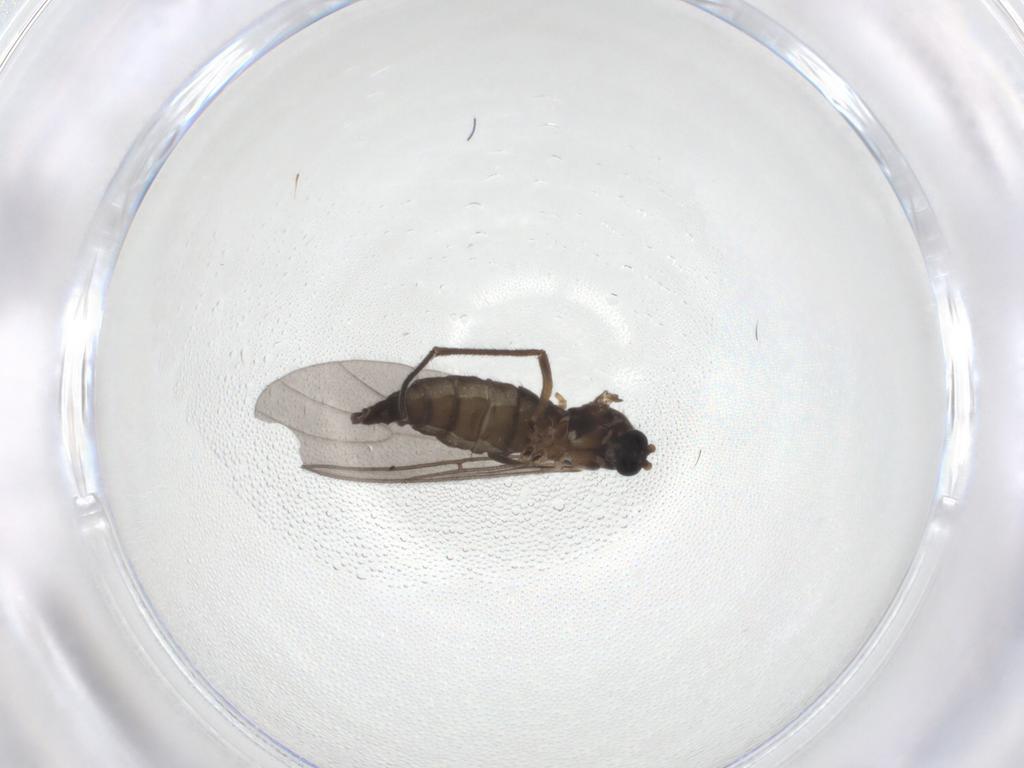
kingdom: Animalia
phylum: Arthropoda
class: Insecta
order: Diptera
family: Sciaridae
